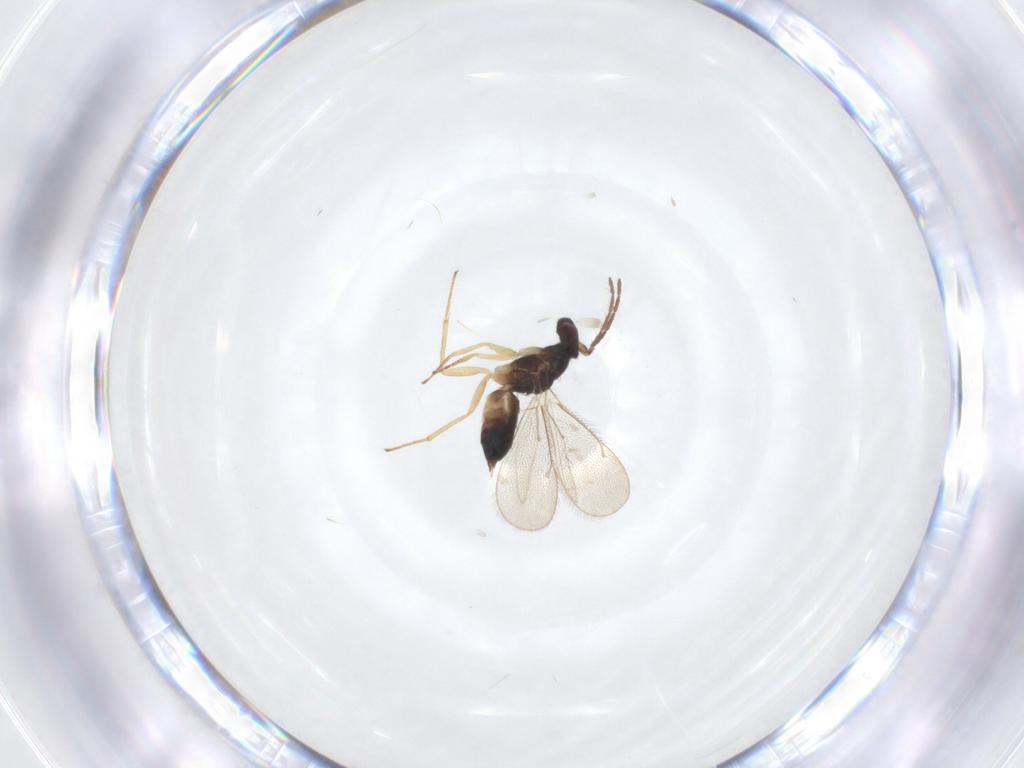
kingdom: Animalia
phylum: Arthropoda
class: Insecta
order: Hymenoptera
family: Eulophidae
